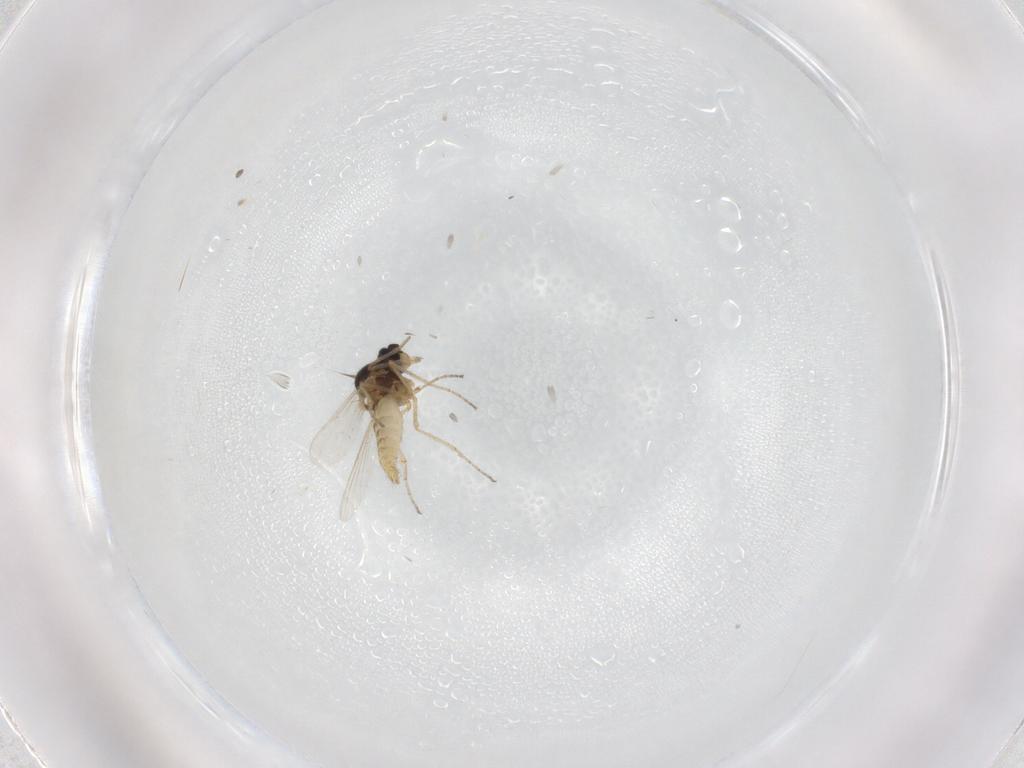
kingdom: Animalia
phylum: Arthropoda
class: Insecta
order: Diptera
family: Ceratopogonidae
